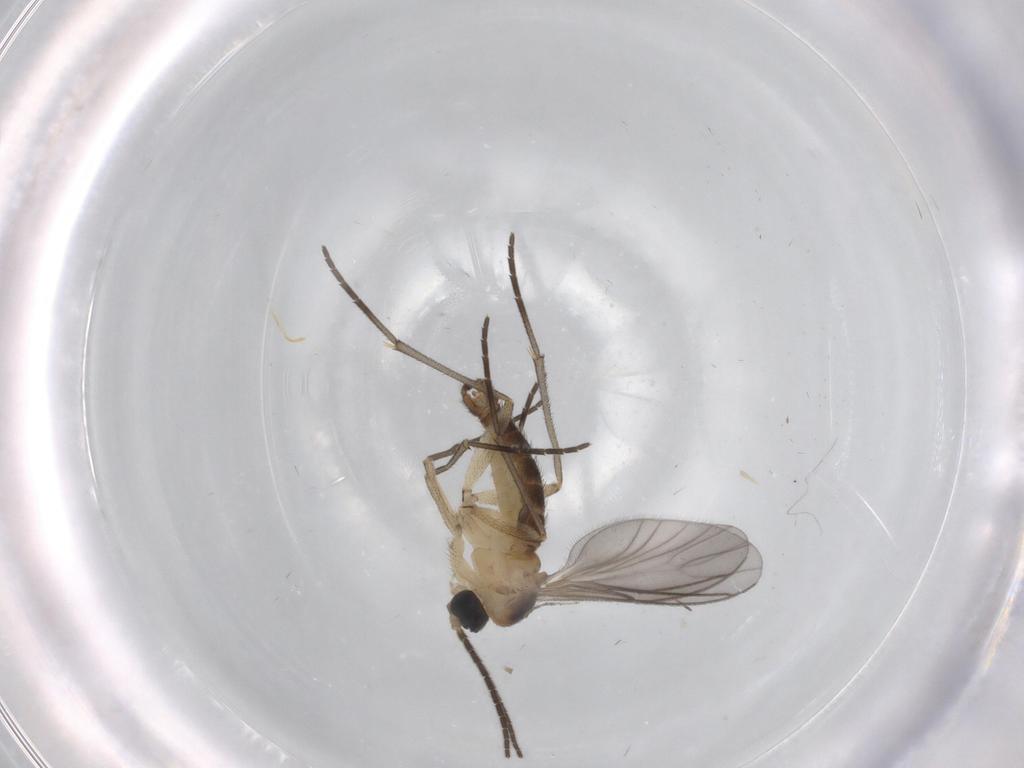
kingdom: Animalia
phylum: Arthropoda
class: Insecta
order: Diptera
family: Sciaridae
